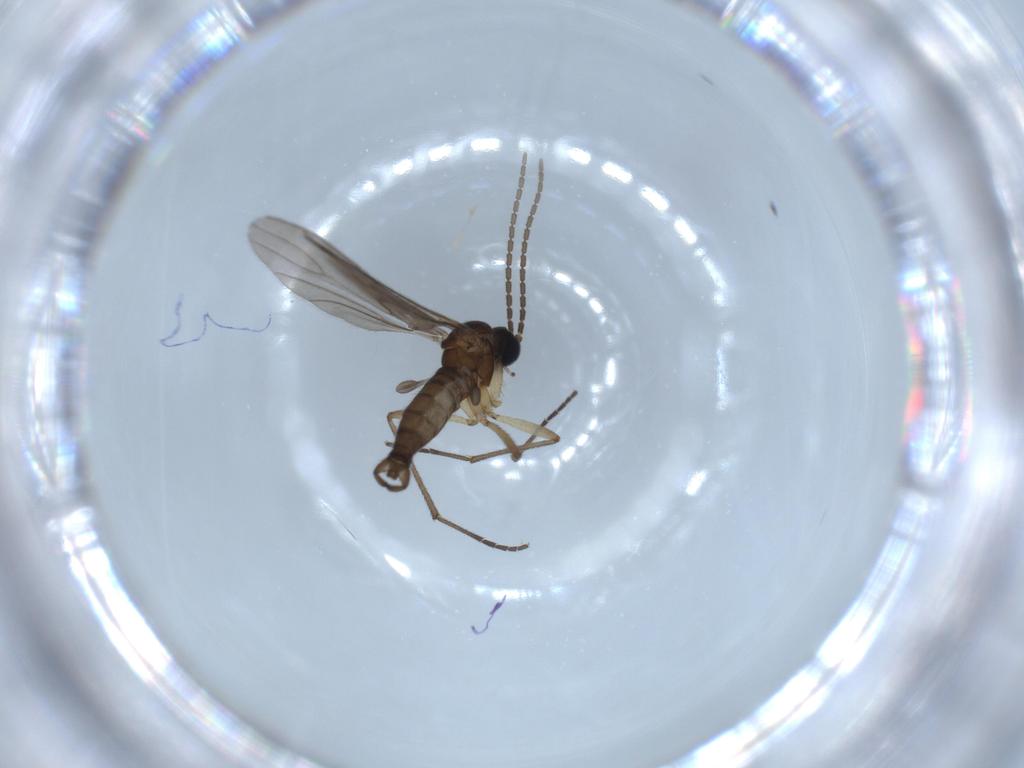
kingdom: Animalia
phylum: Arthropoda
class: Insecta
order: Diptera
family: Sciaridae
